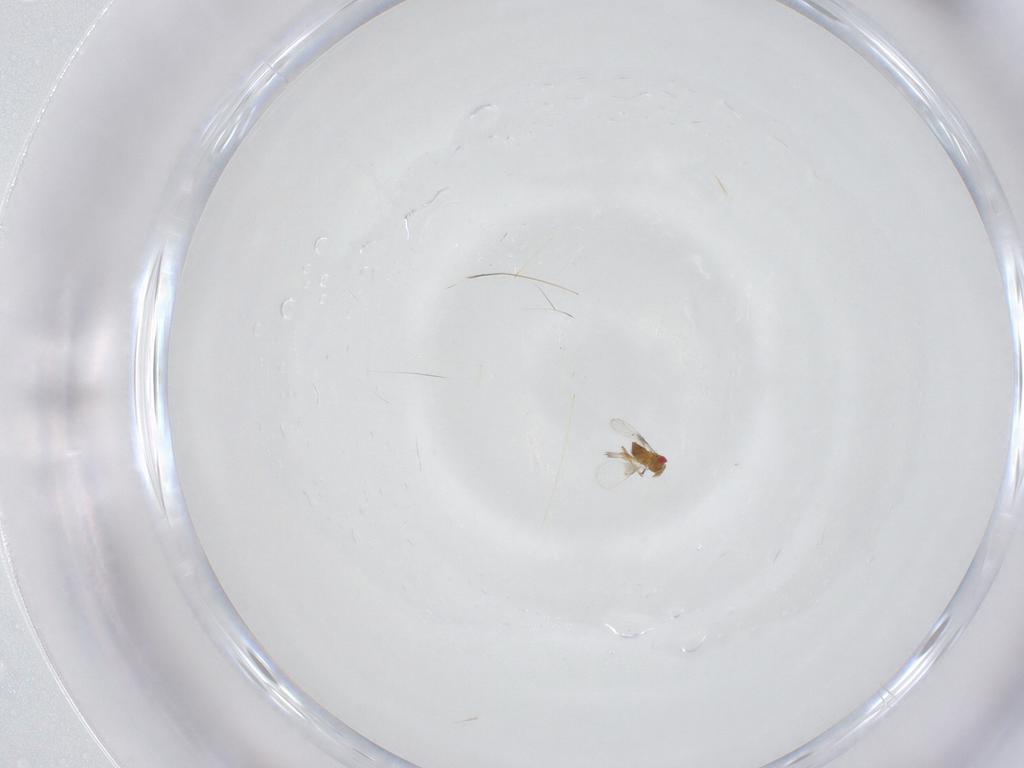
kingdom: Animalia
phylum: Arthropoda
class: Insecta
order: Hymenoptera
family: Trichogrammatidae
